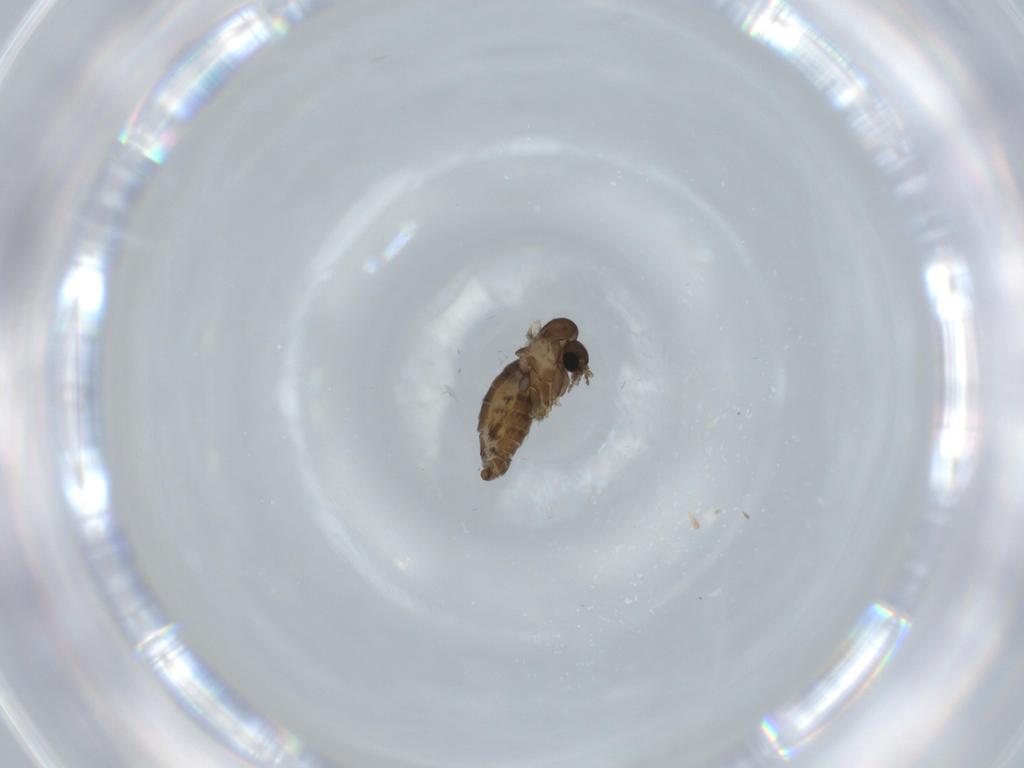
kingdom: Animalia
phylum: Arthropoda
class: Insecta
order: Diptera
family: Psychodidae
